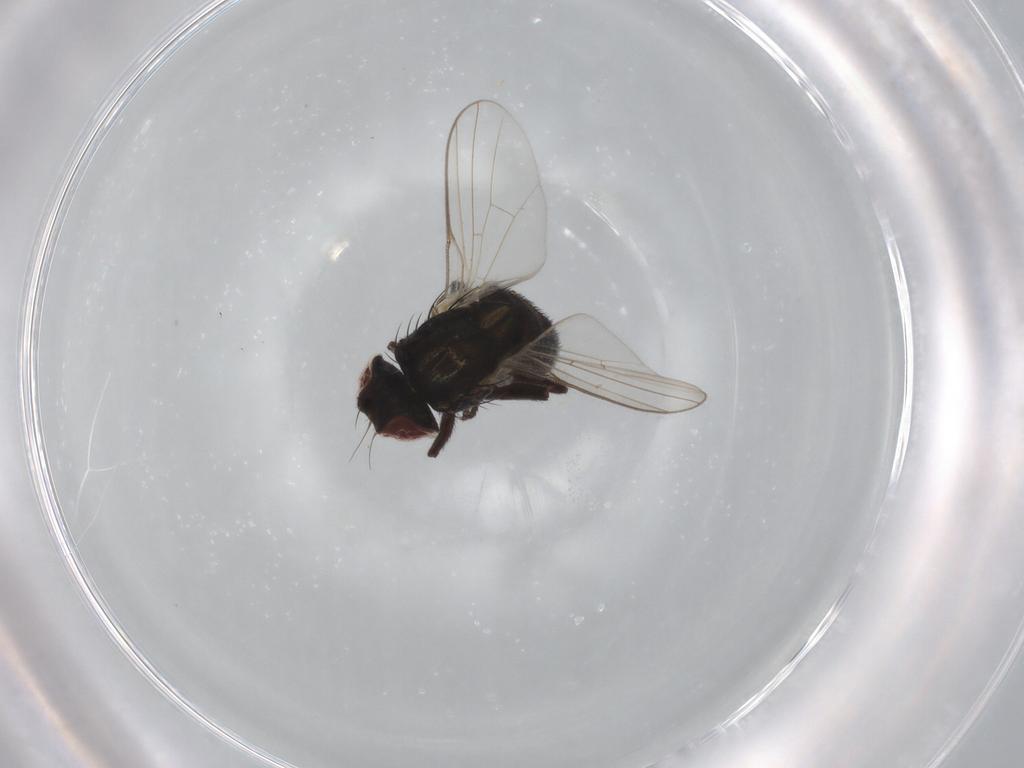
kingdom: Animalia
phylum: Arthropoda
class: Insecta
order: Diptera
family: Agromyzidae
